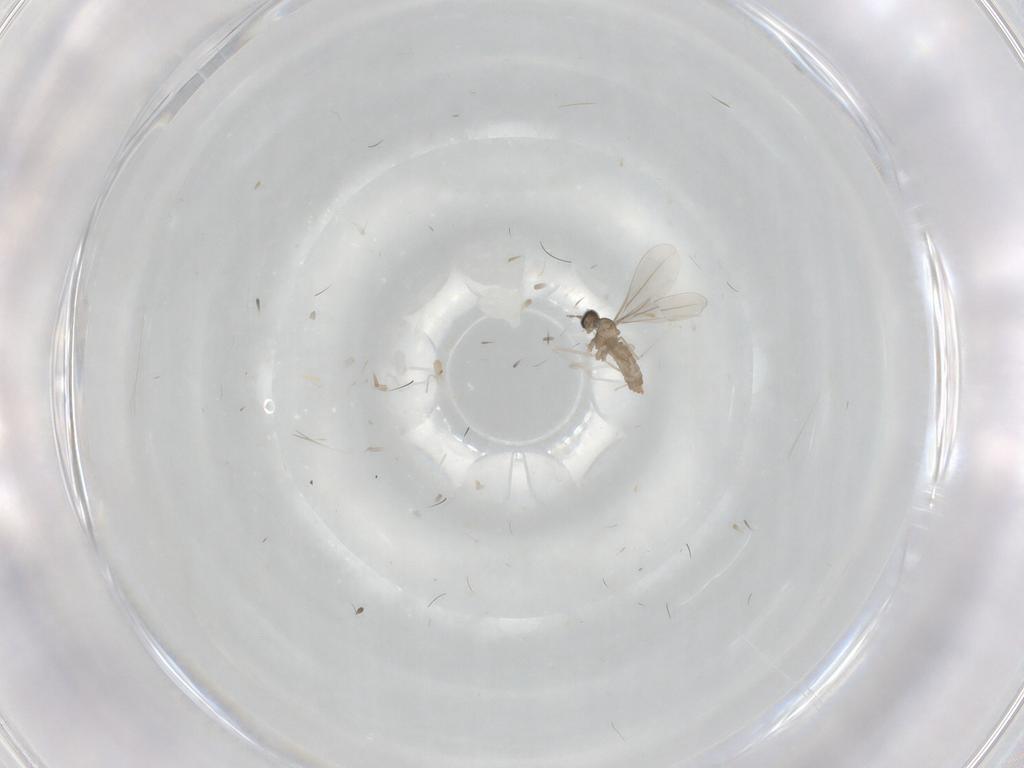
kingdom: Animalia
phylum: Arthropoda
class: Insecta
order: Diptera
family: Cecidomyiidae
